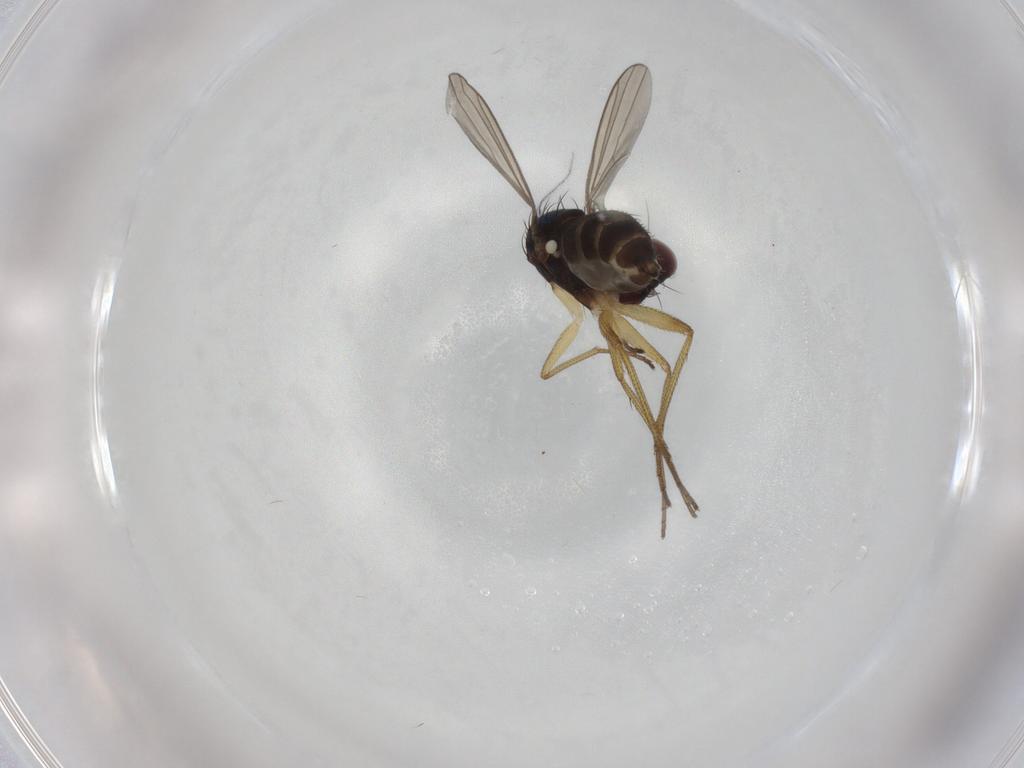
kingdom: Animalia
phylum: Arthropoda
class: Insecta
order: Diptera
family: Dolichopodidae
